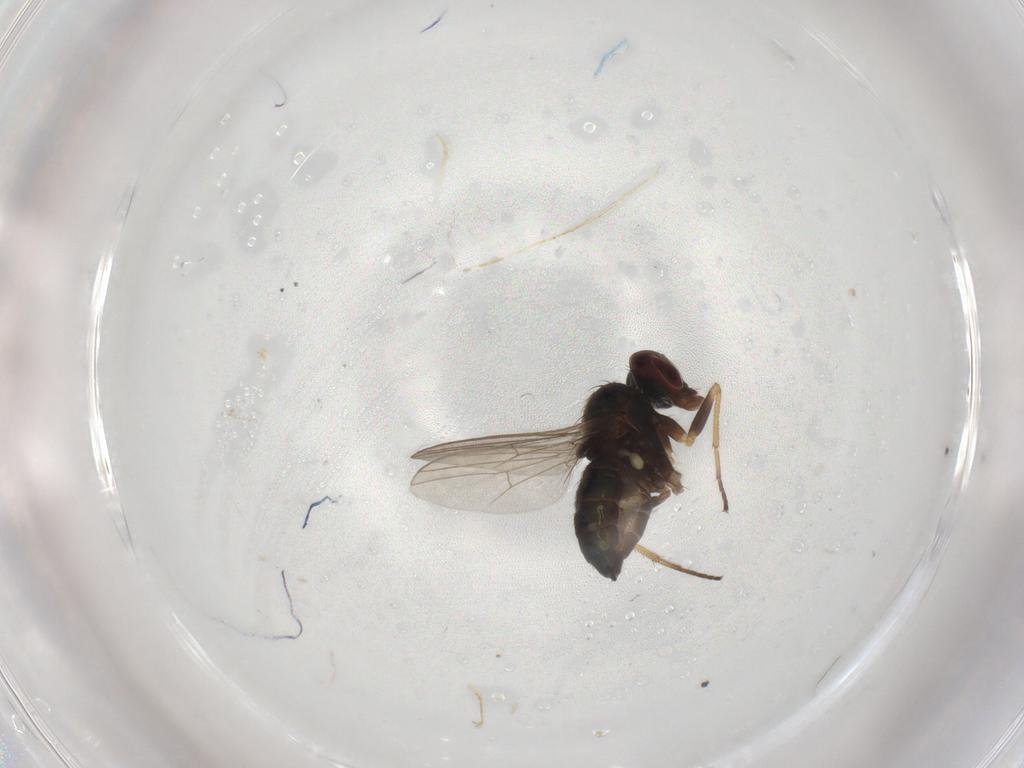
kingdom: Animalia
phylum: Arthropoda
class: Insecta
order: Diptera
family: Dolichopodidae
